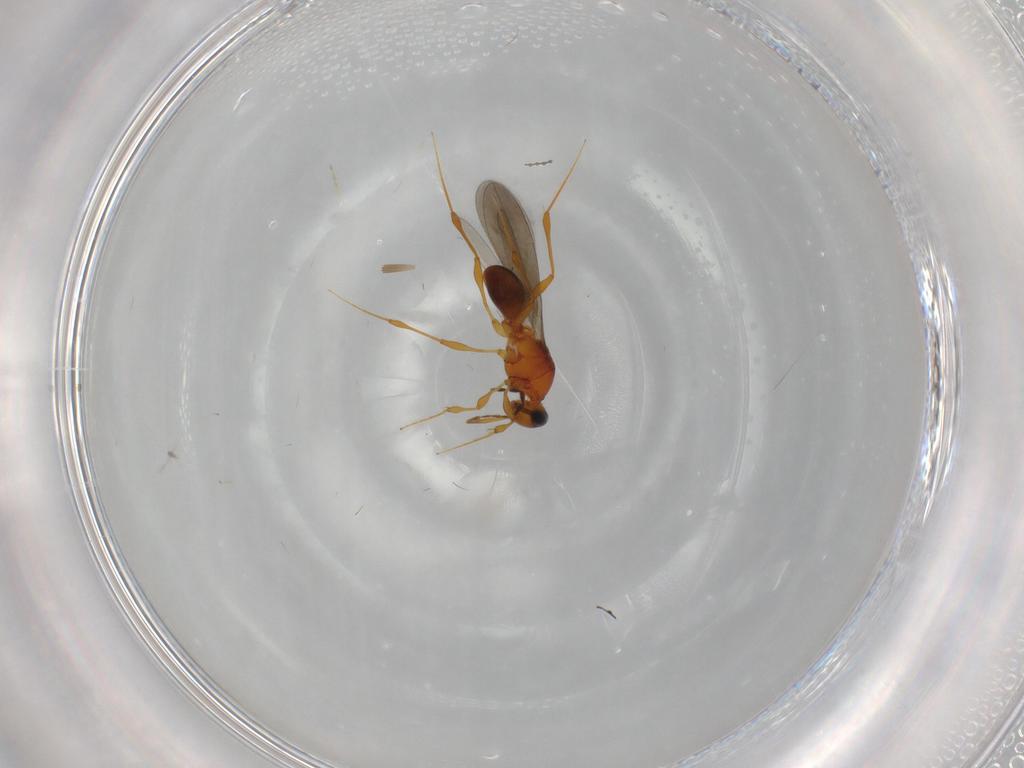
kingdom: Animalia
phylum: Arthropoda
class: Insecta
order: Hymenoptera
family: Platygastridae
